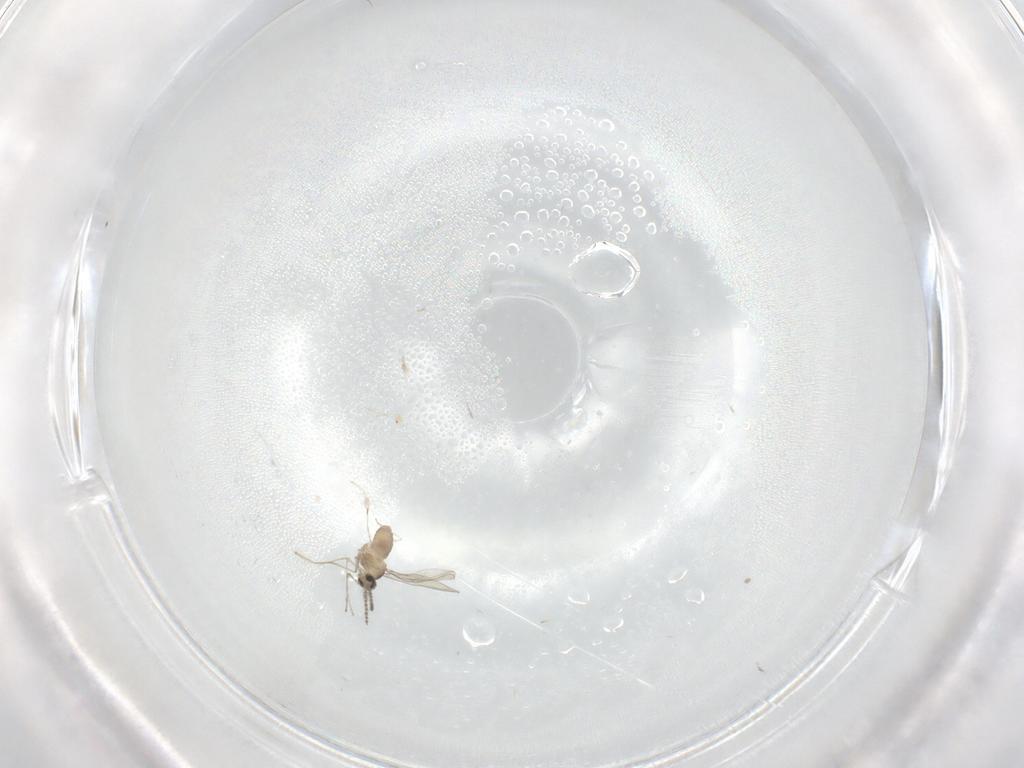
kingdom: Animalia
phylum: Arthropoda
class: Insecta
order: Diptera
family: Cecidomyiidae
